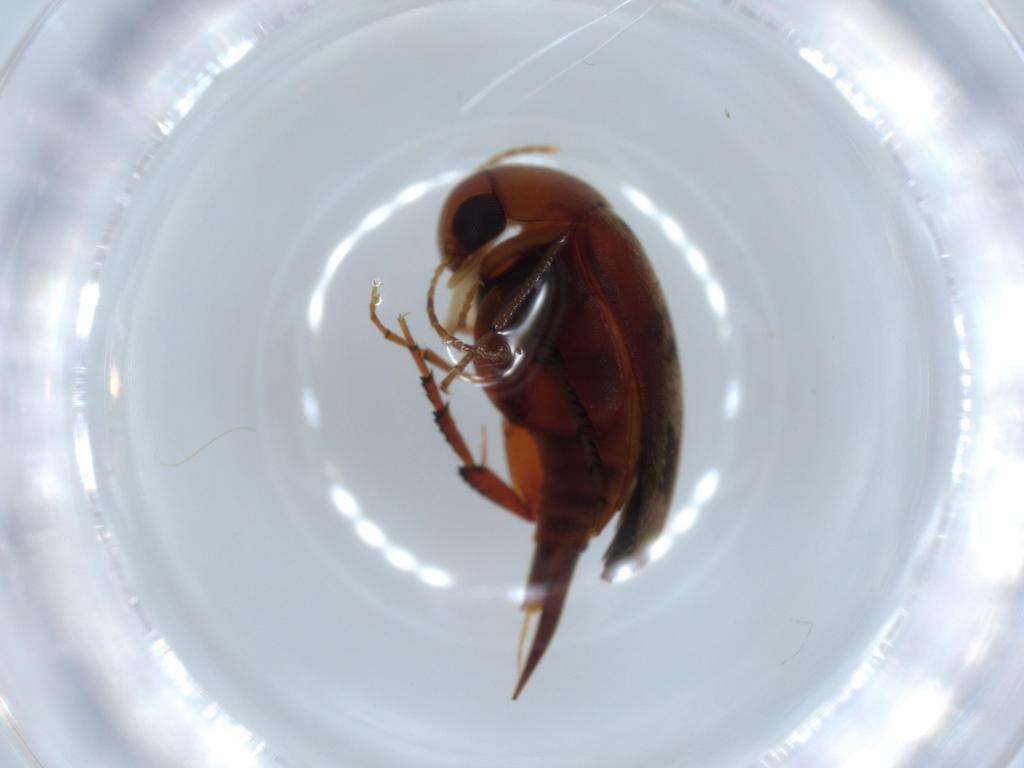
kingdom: Animalia
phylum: Arthropoda
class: Insecta
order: Coleoptera
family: Mordellidae
